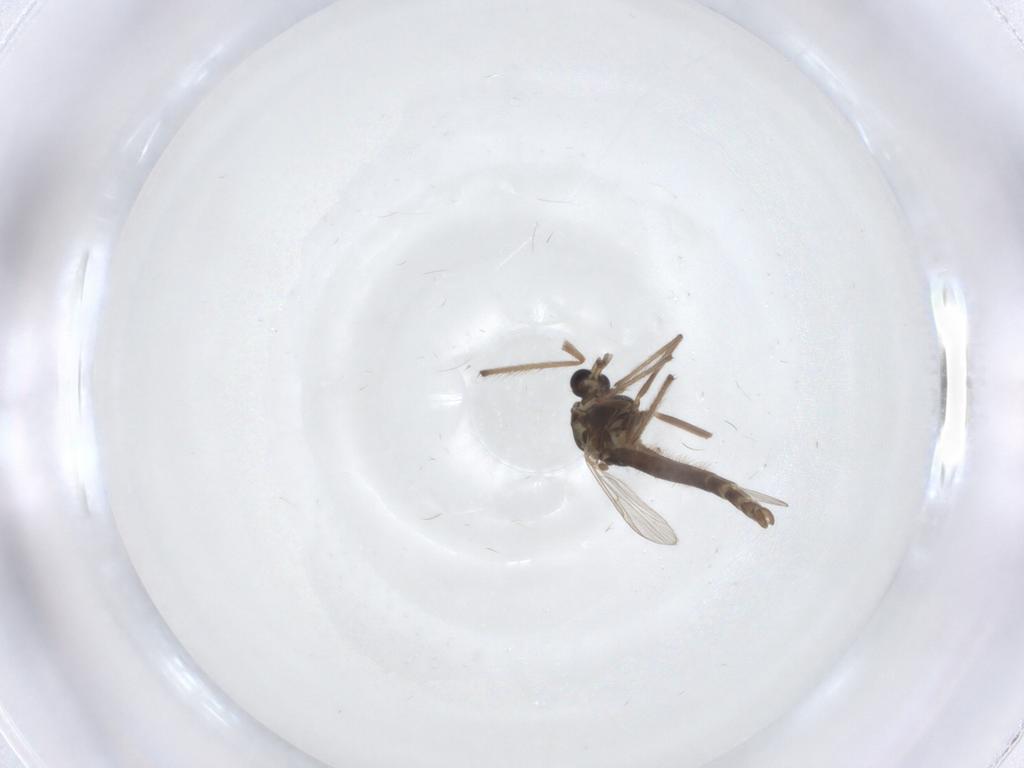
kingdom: Animalia
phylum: Arthropoda
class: Insecta
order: Diptera
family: Chironomidae
